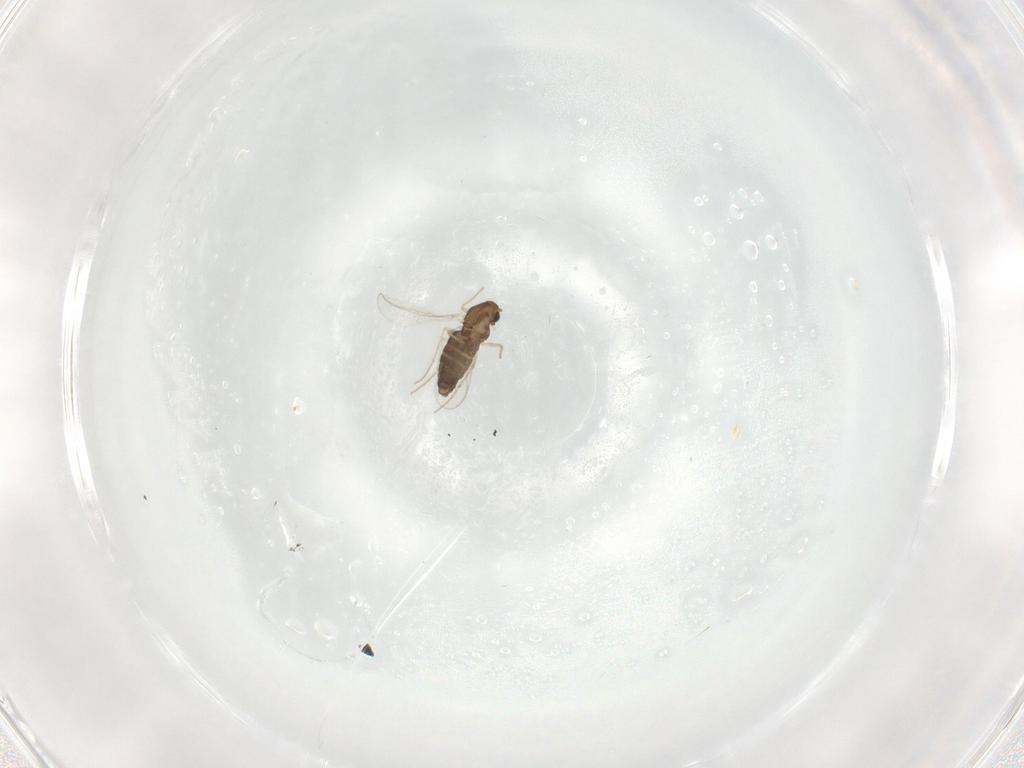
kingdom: Animalia
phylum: Arthropoda
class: Insecta
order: Diptera
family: Chironomidae
